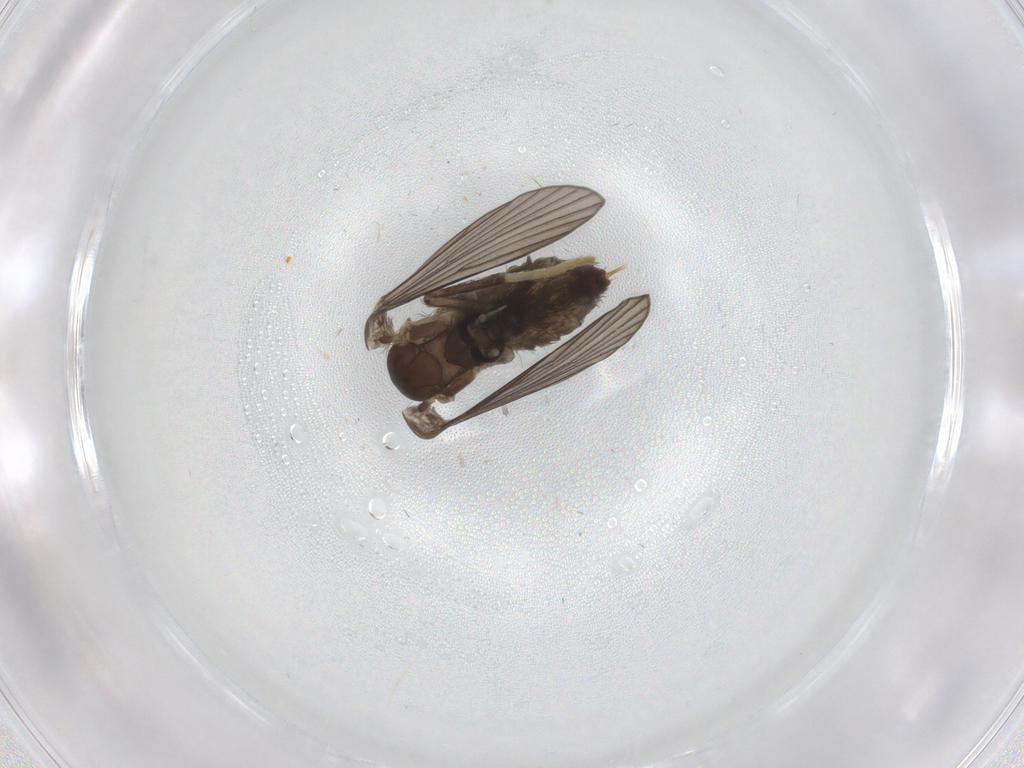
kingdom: Animalia
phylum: Arthropoda
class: Insecta
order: Diptera
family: Psychodidae
